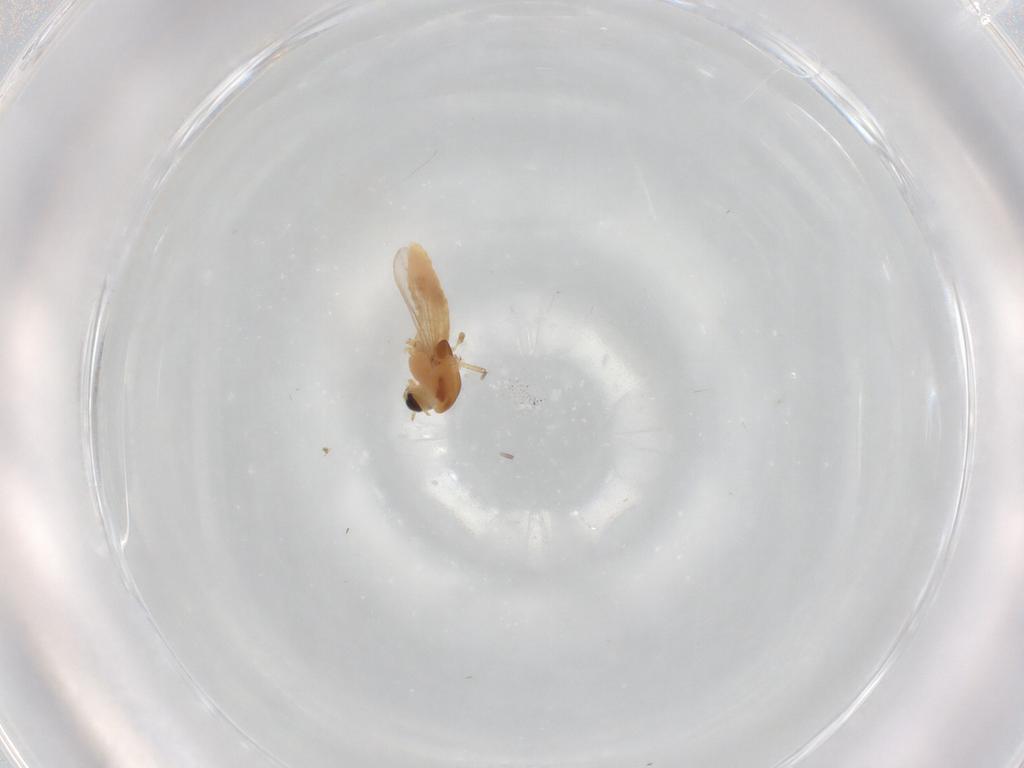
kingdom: Animalia
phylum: Arthropoda
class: Insecta
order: Diptera
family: Chironomidae
